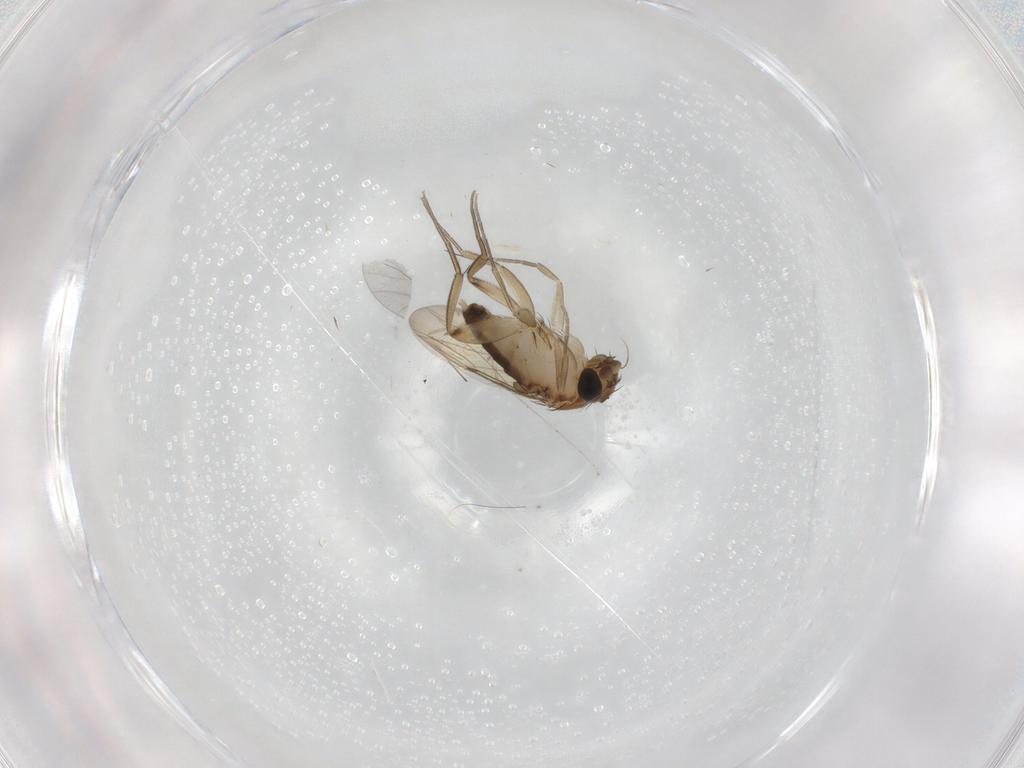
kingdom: Animalia
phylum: Arthropoda
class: Insecta
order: Diptera
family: Phoridae
